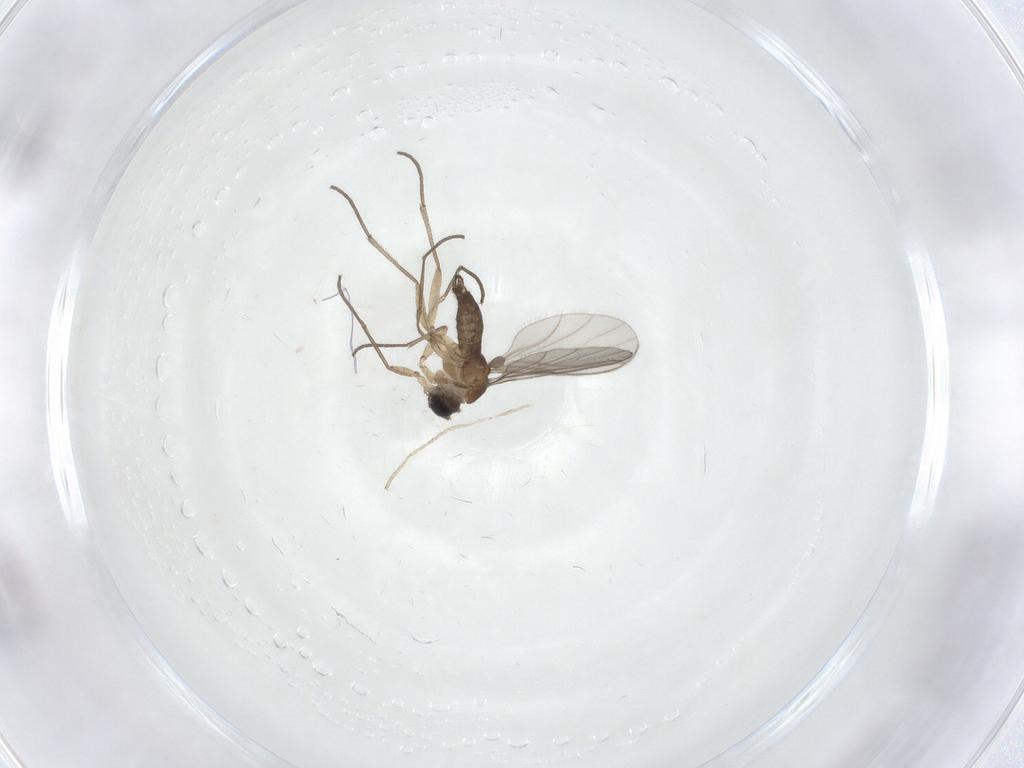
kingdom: Animalia
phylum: Arthropoda
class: Insecta
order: Diptera
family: Sciaridae
